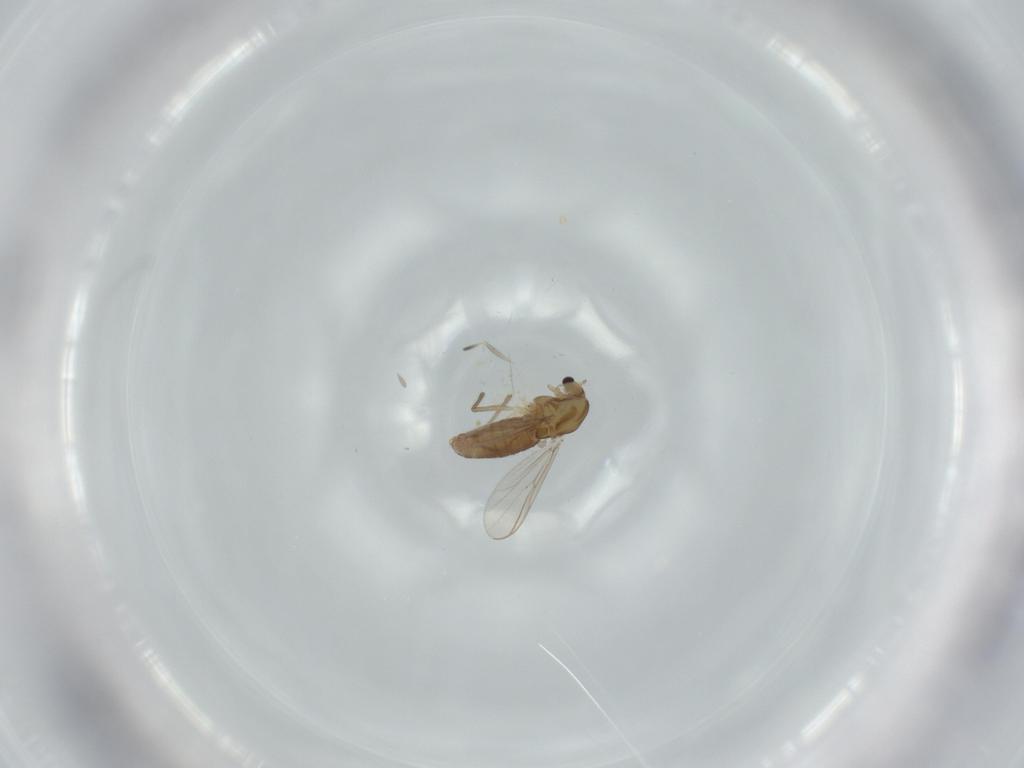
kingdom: Animalia
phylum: Arthropoda
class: Insecta
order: Diptera
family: Chironomidae
